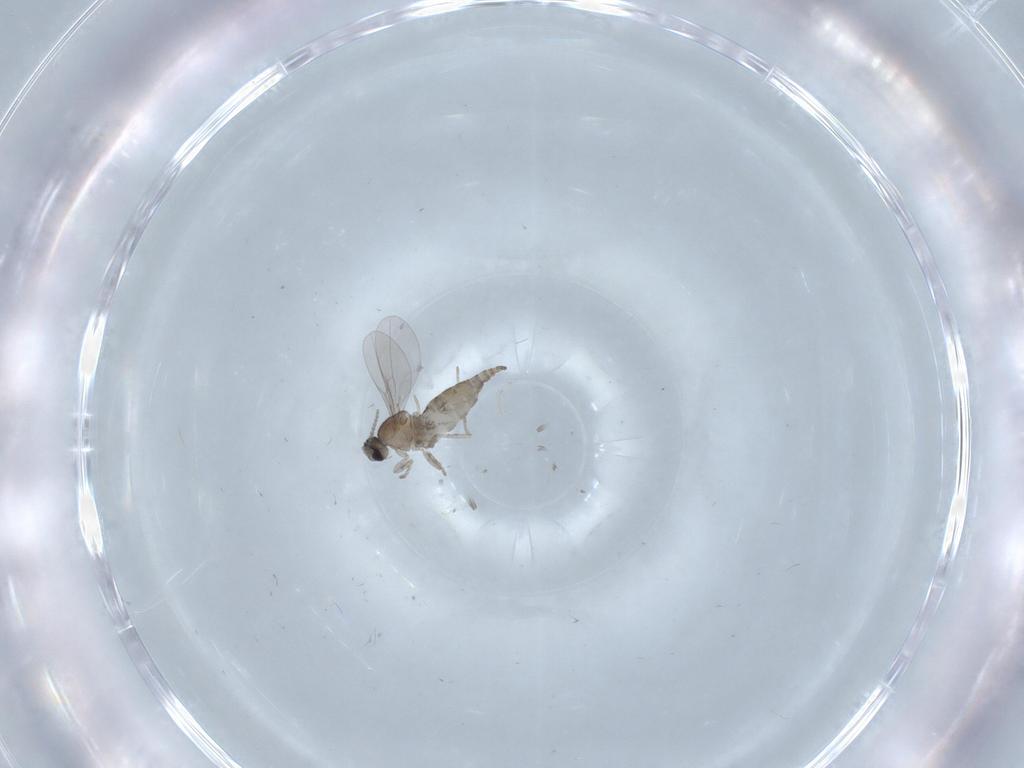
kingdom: Animalia
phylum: Arthropoda
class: Insecta
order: Diptera
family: Cecidomyiidae
